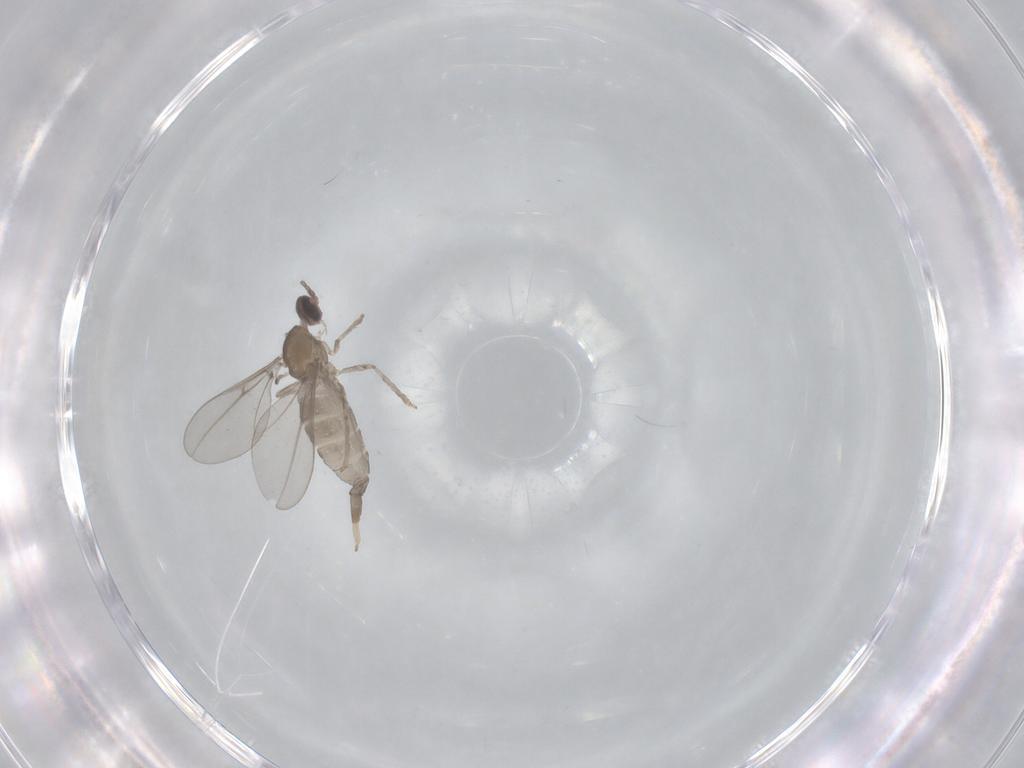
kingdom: Animalia
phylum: Arthropoda
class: Insecta
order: Diptera
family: Cecidomyiidae
